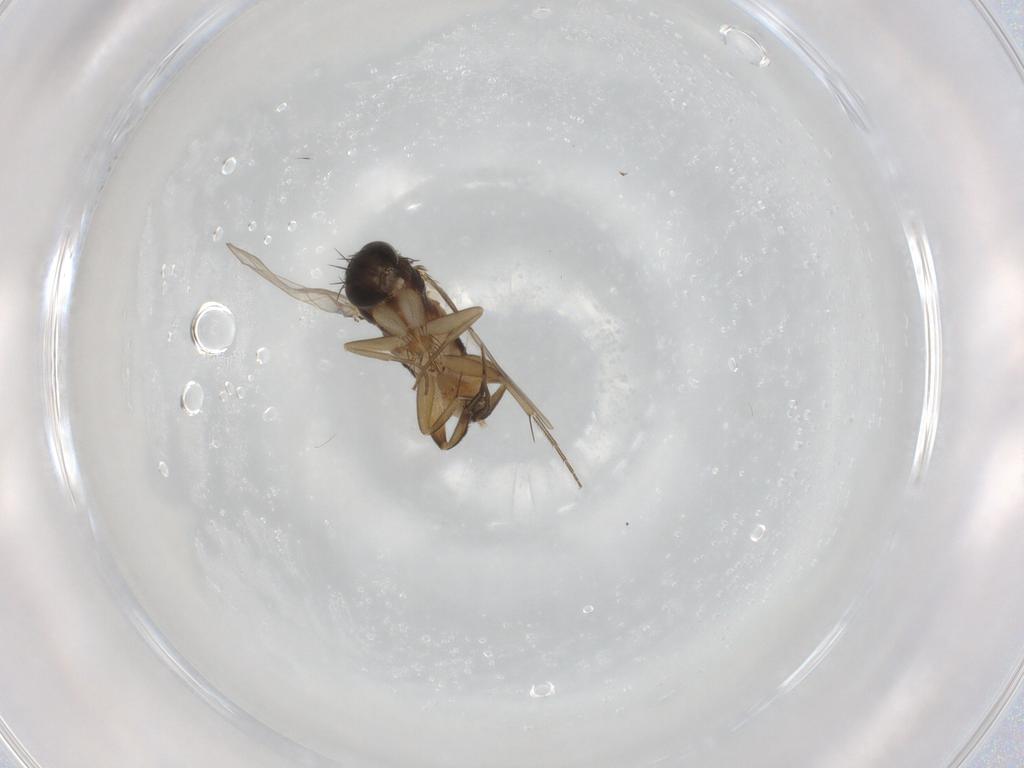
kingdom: Animalia
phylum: Arthropoda
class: Insecta
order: Diptera
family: Phoridae
